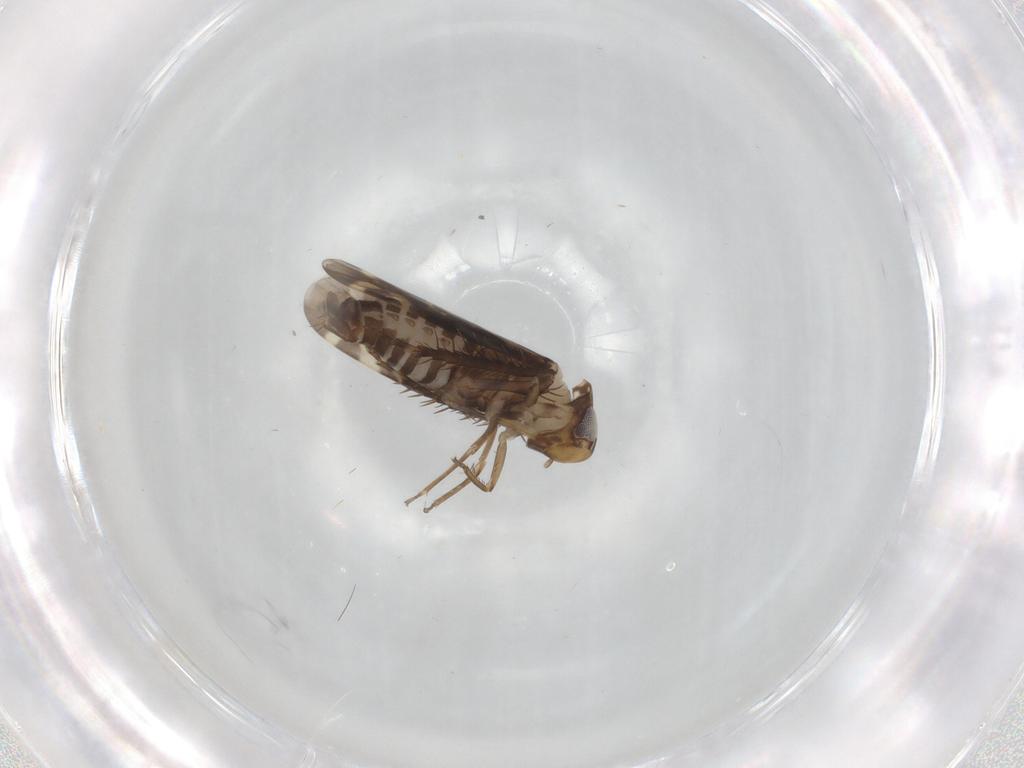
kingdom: Animalia
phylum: Arthropoda
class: Insecta
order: Hemiptera
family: Cicadellidae
